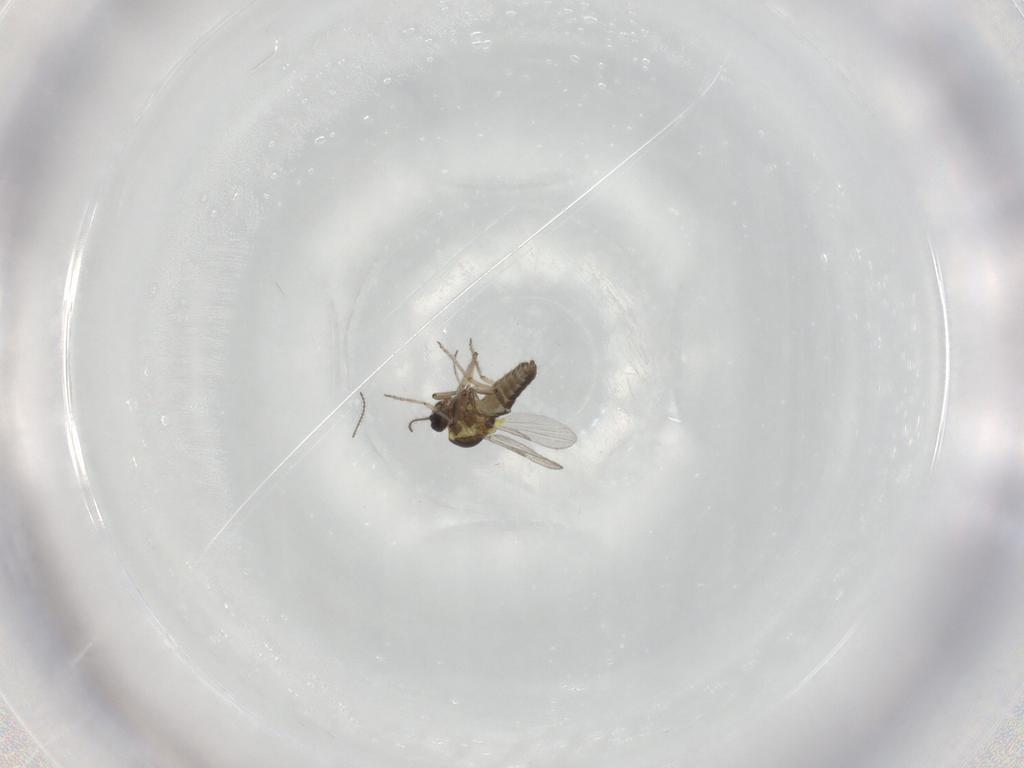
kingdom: Animalia
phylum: Arthropoda
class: Insecta
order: Diptera
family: Ceratopogonidae
